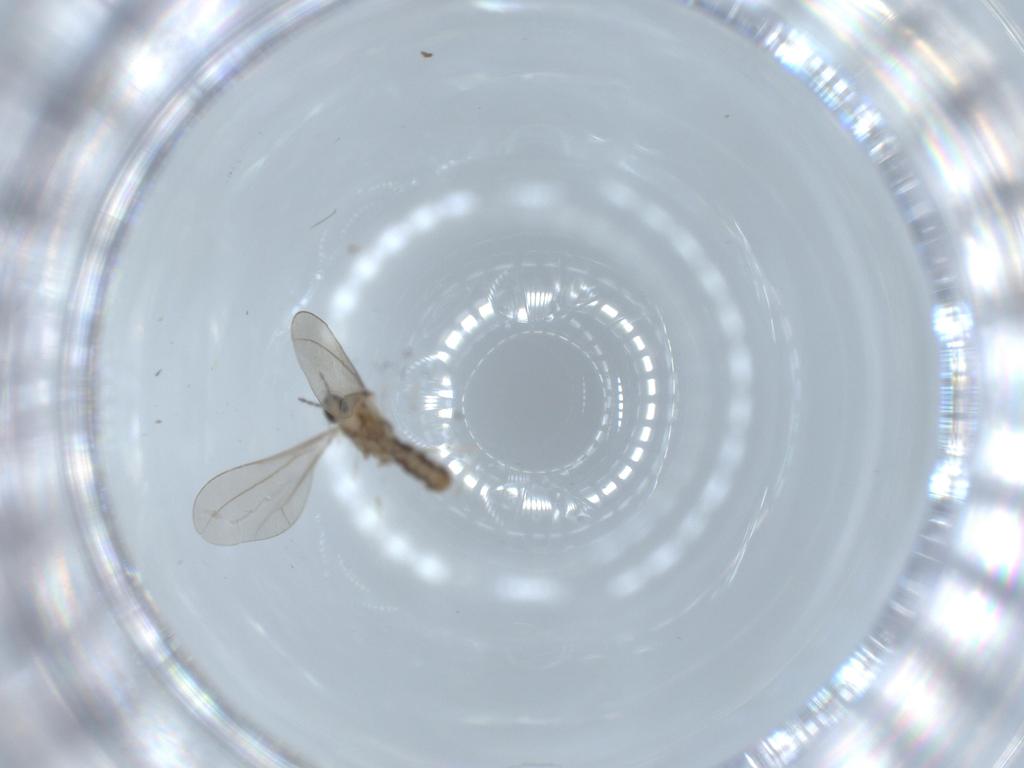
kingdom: Animalia
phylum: Arthropoda
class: Insecta
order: Diptera
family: Cecidomyiidae
